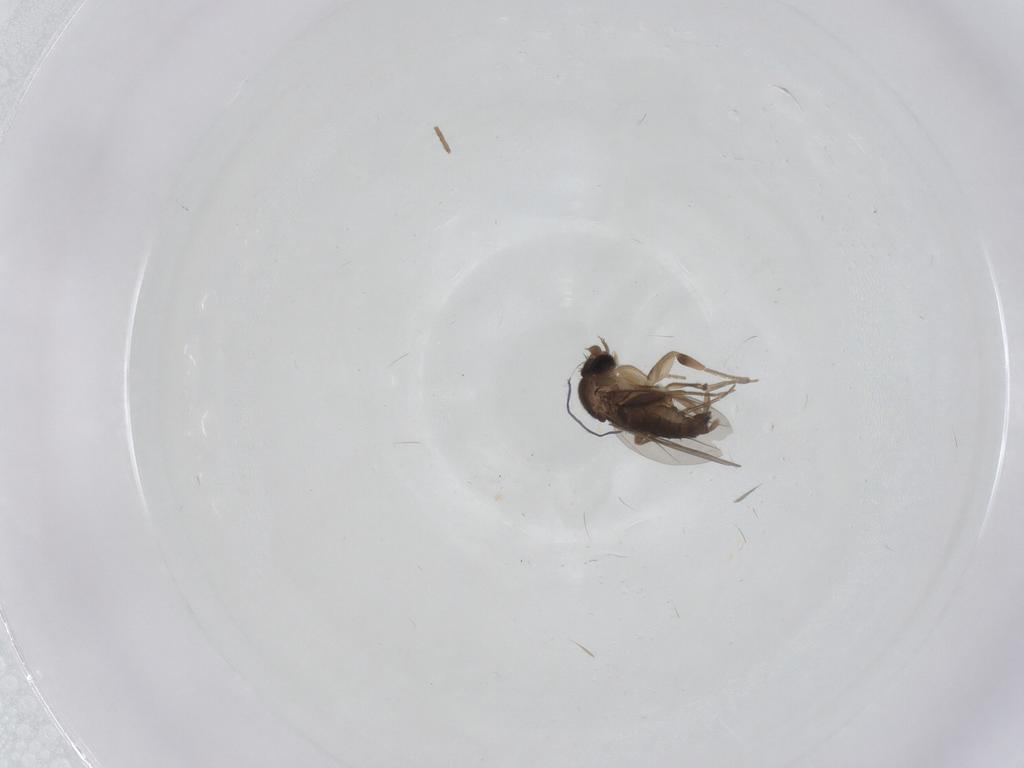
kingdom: Animalia
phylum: Arthropoda
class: Insecta
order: Diptera
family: Phoridae
